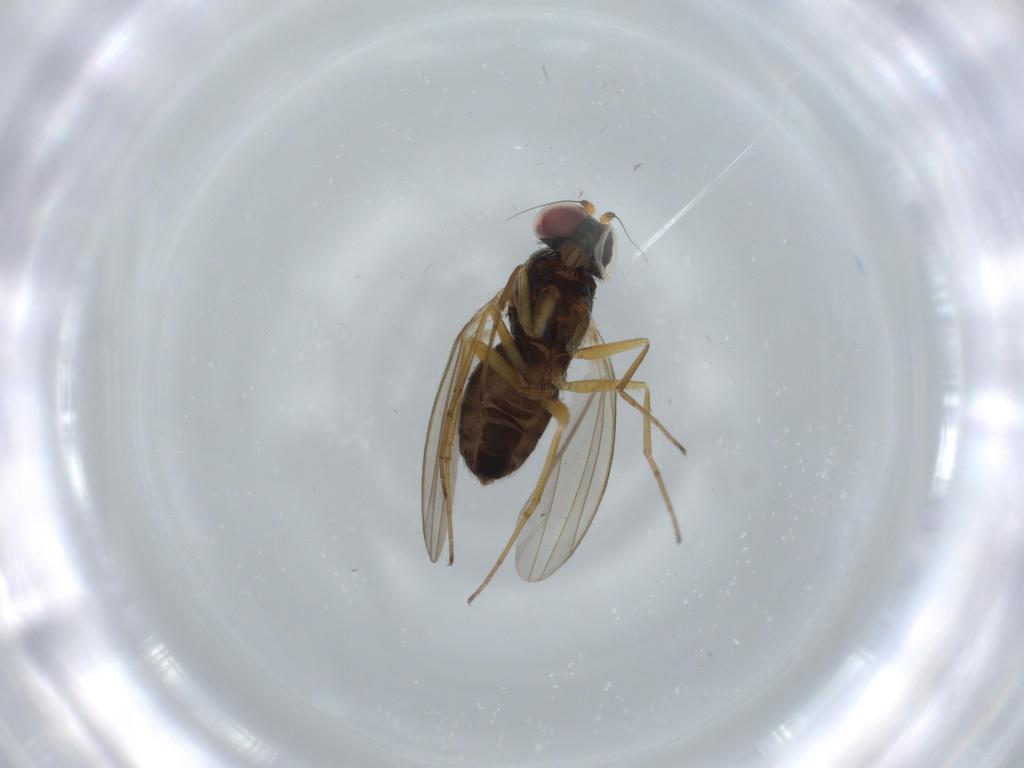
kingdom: Animalia
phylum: Arthropoda
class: Insecta
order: Diptera
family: Dolichopodidae
